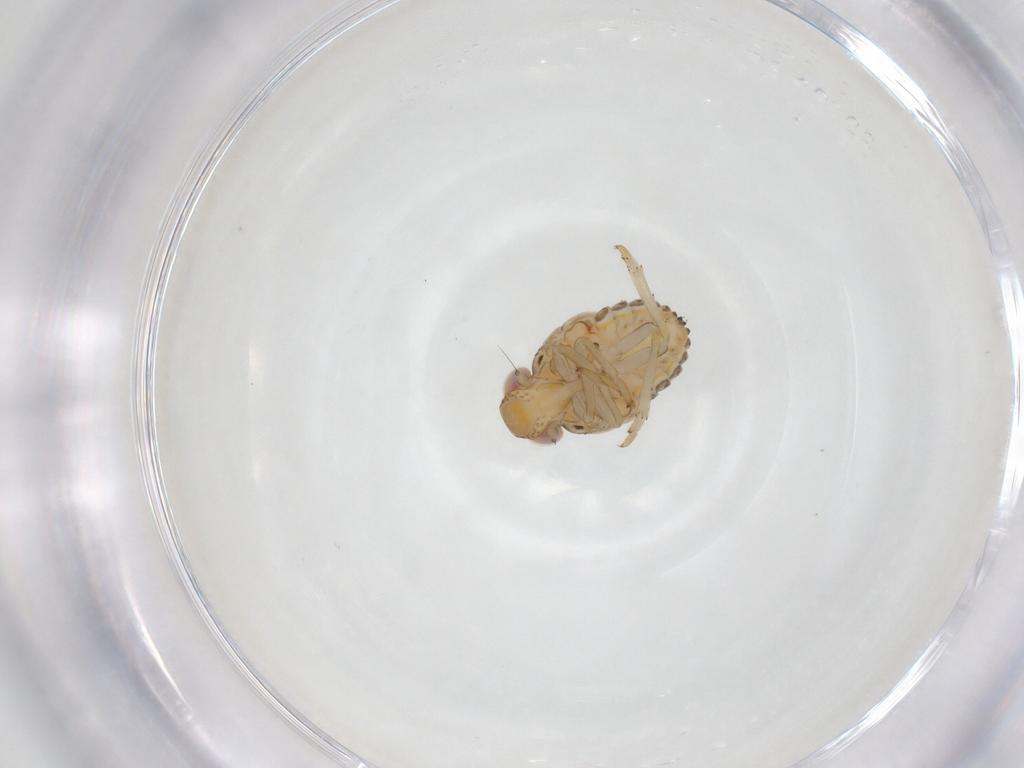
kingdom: Animalia
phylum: Arthropoda
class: Insecta
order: Hemiptera
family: Issidae
